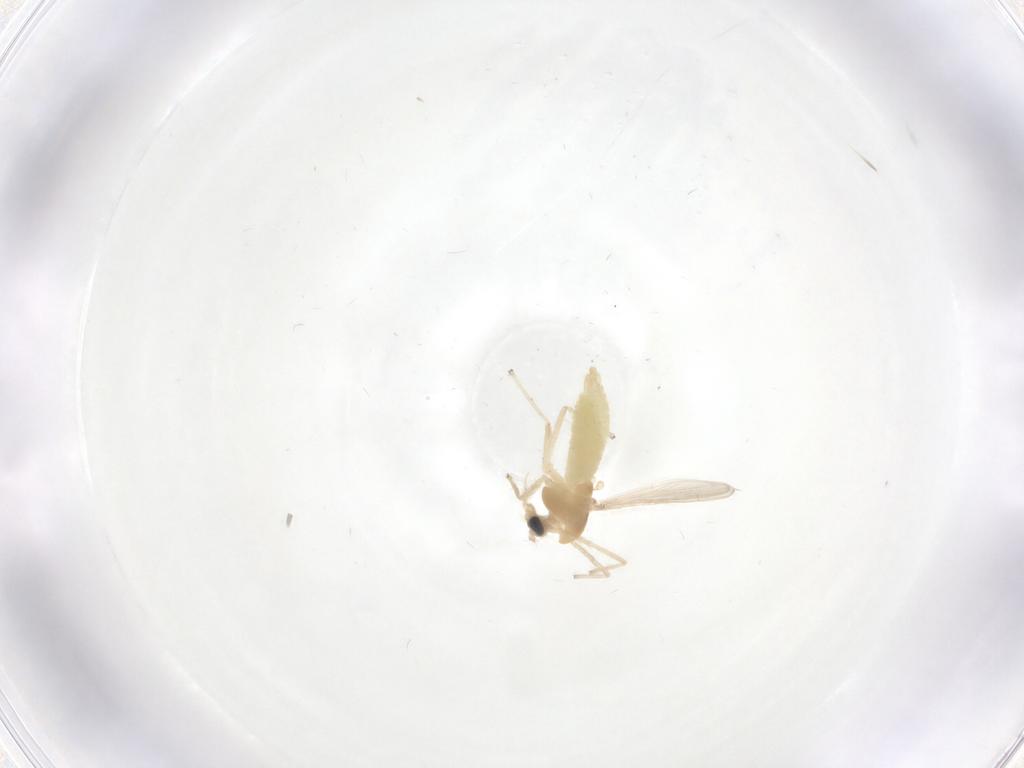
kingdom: Animalia
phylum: Arthropoda
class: Insecta
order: Diptera
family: Chironomidae
